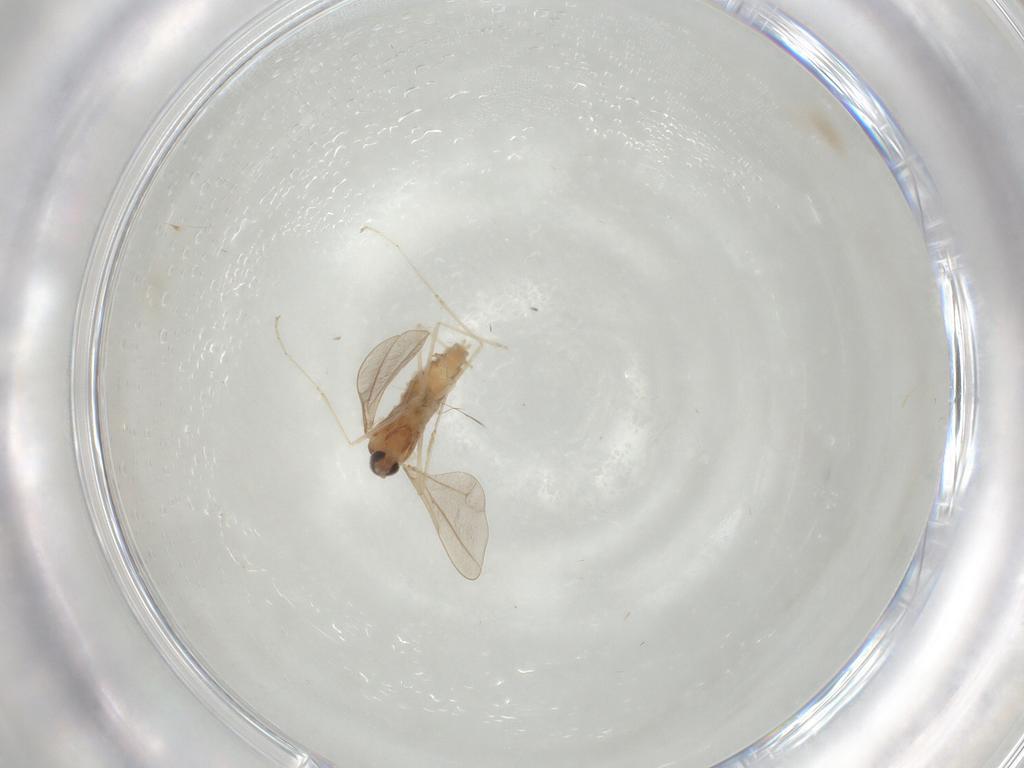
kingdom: Animalia
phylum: Arthropoda
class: Insecta
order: Diptera
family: Cecidomyiidae
